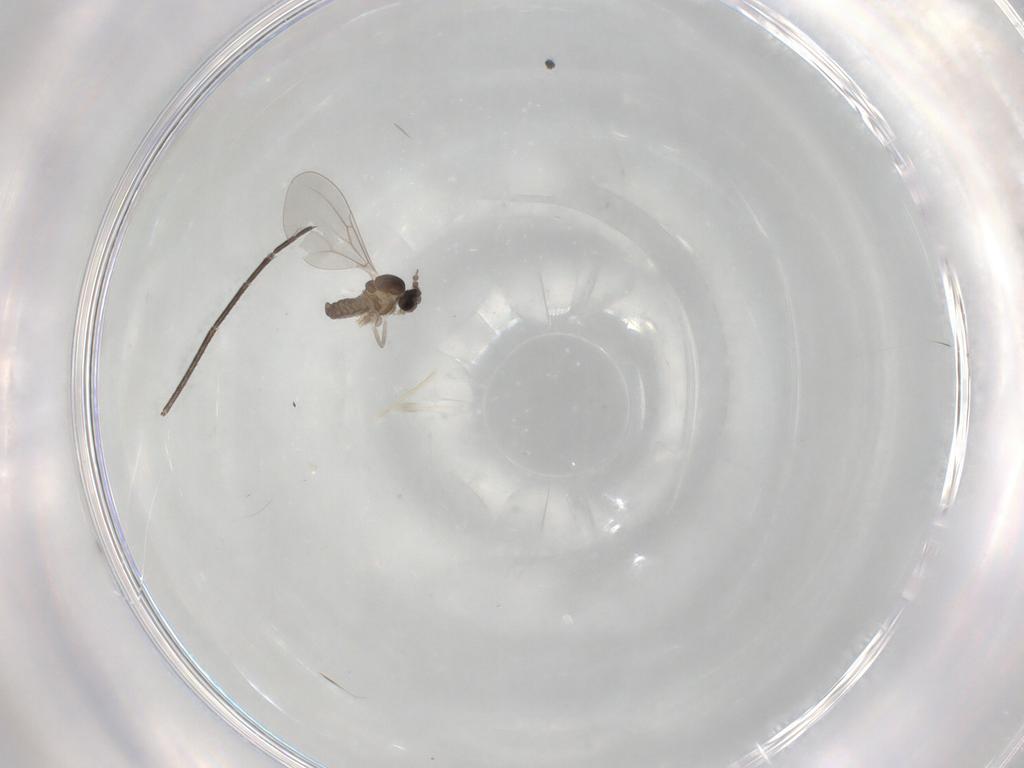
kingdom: Animalia
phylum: Arthropoda
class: Insecta
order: Diptera
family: Cecidomyiidae
